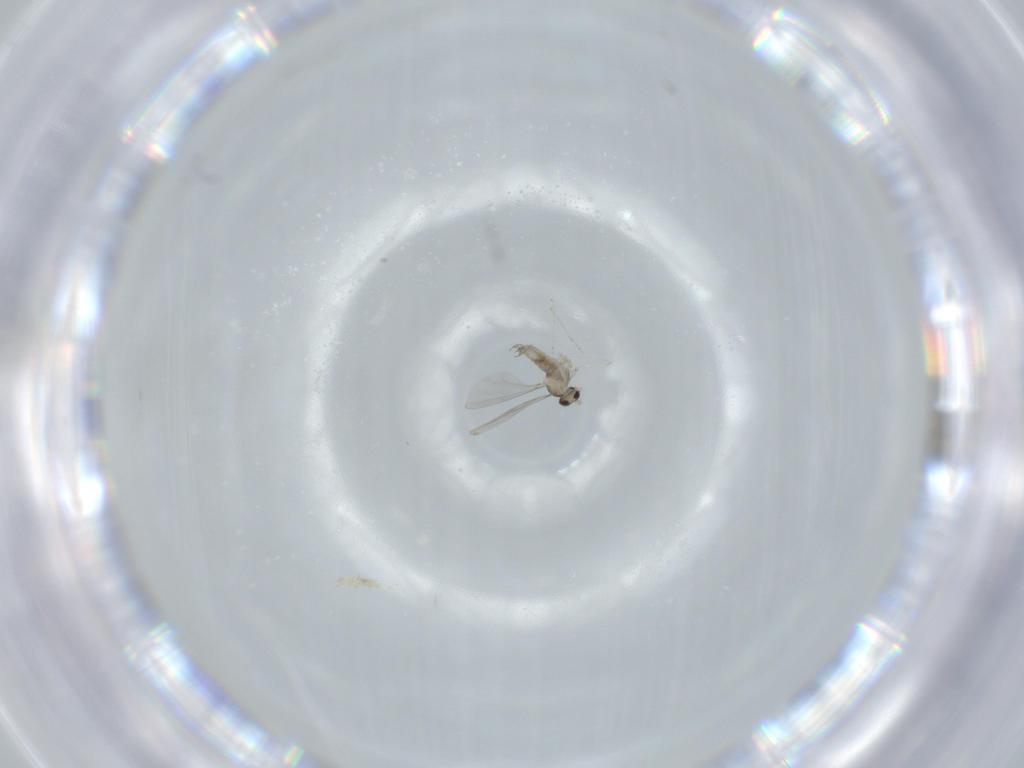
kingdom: Animalia
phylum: Arthropoda
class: Insecta
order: Diptera
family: Cecidomyiidae
